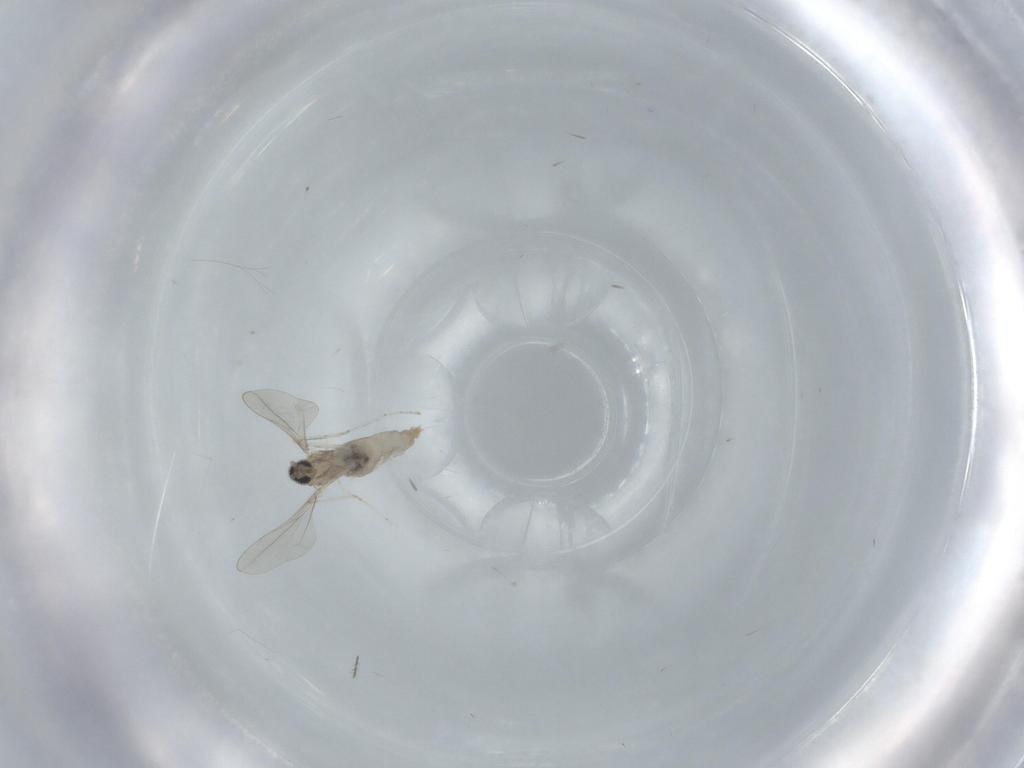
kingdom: Animalia
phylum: Arthropoda
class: Insecta
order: Diptera
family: Cecidomyiidae
